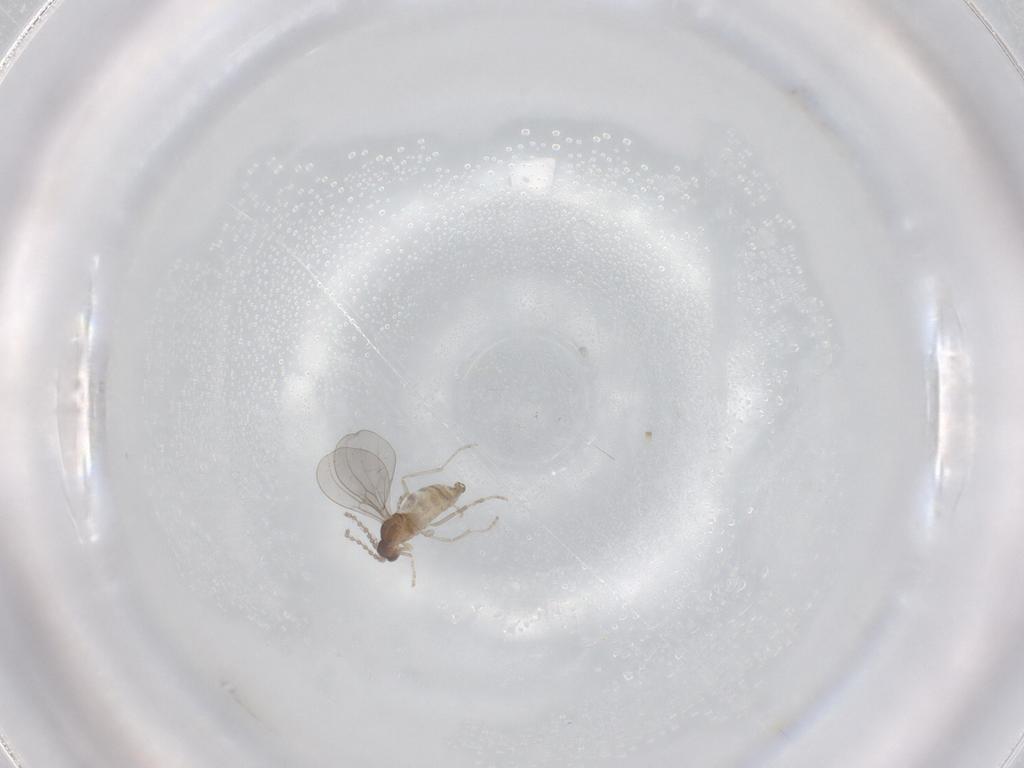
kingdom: Animalia
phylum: Arthropoda
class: Insecta
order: Diptera
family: Cecidomyiidae
